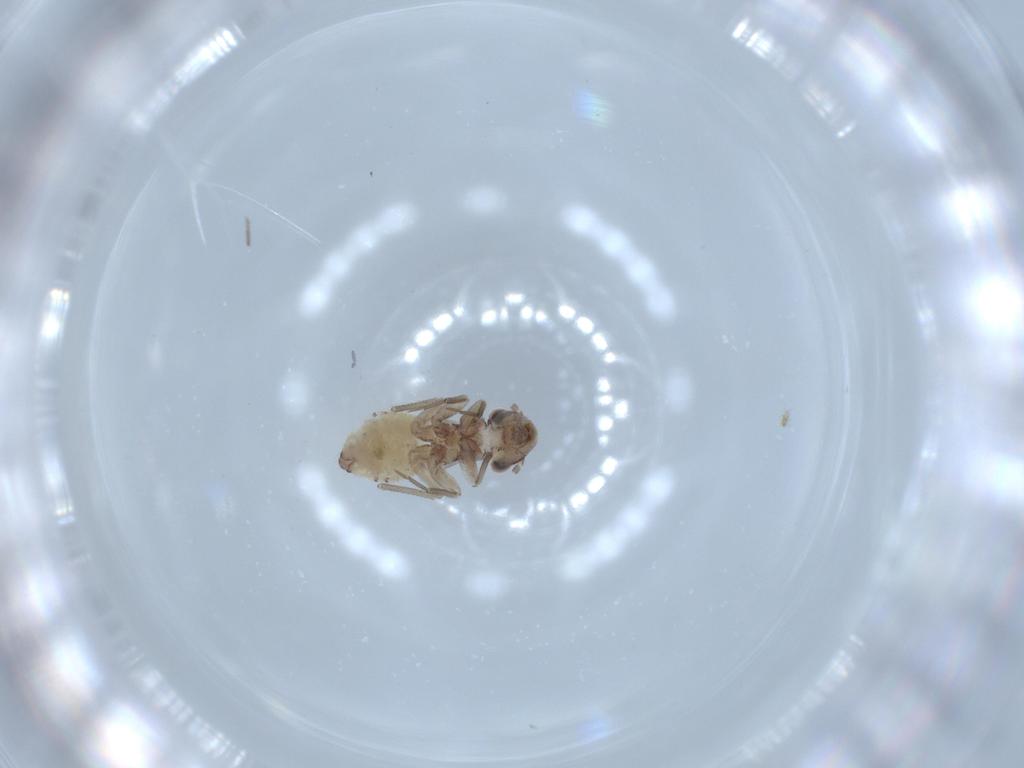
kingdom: Animalia
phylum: Arthropoda
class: Insecta
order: Psocodea
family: Lepidopsocidae
